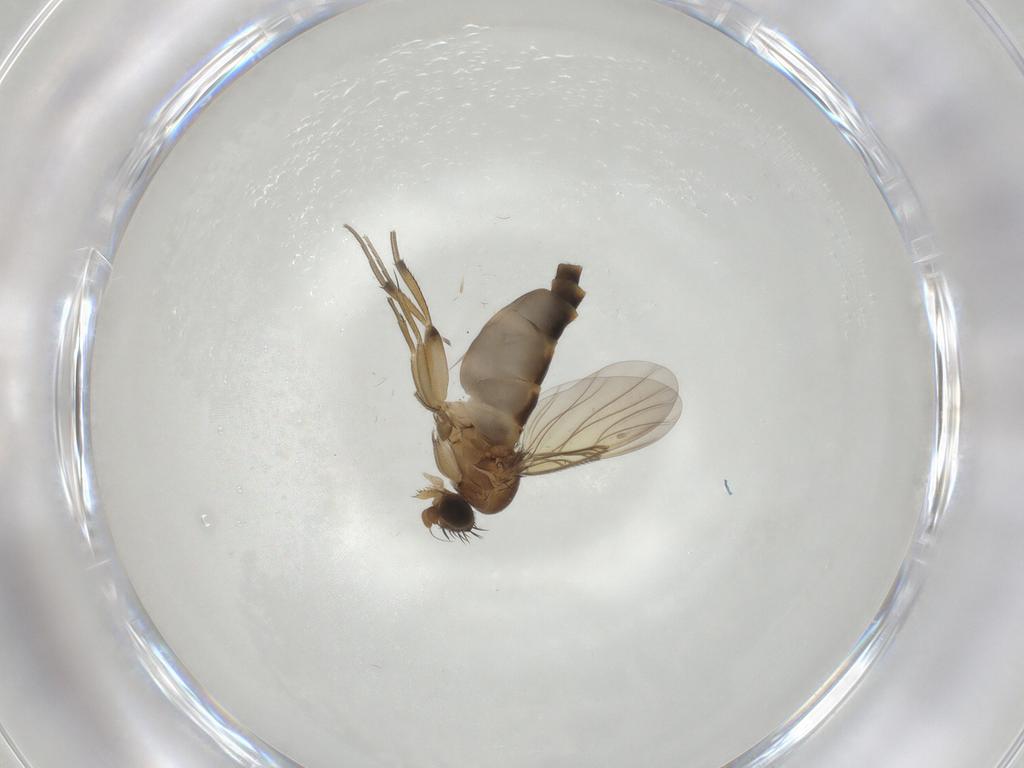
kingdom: Animalia
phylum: Arthropoda
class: Insecta
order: Diptera
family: Phoridae
